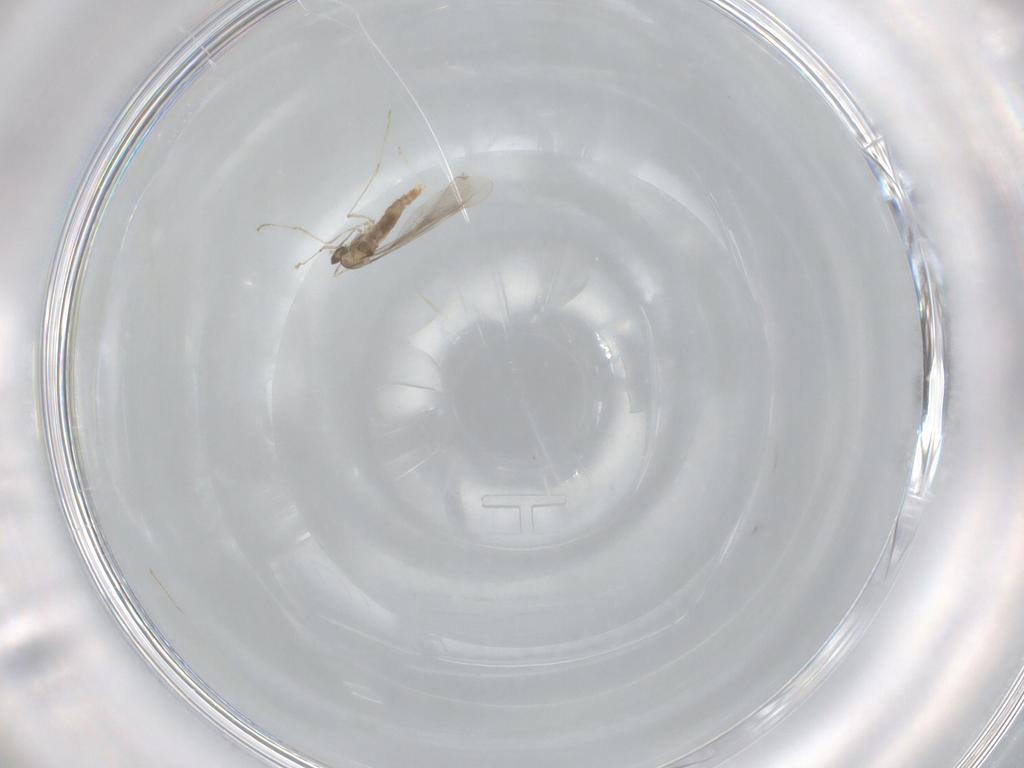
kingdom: Animalia
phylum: Arthropoda
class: Insecta
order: Diptera
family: Cecidomyiidae
